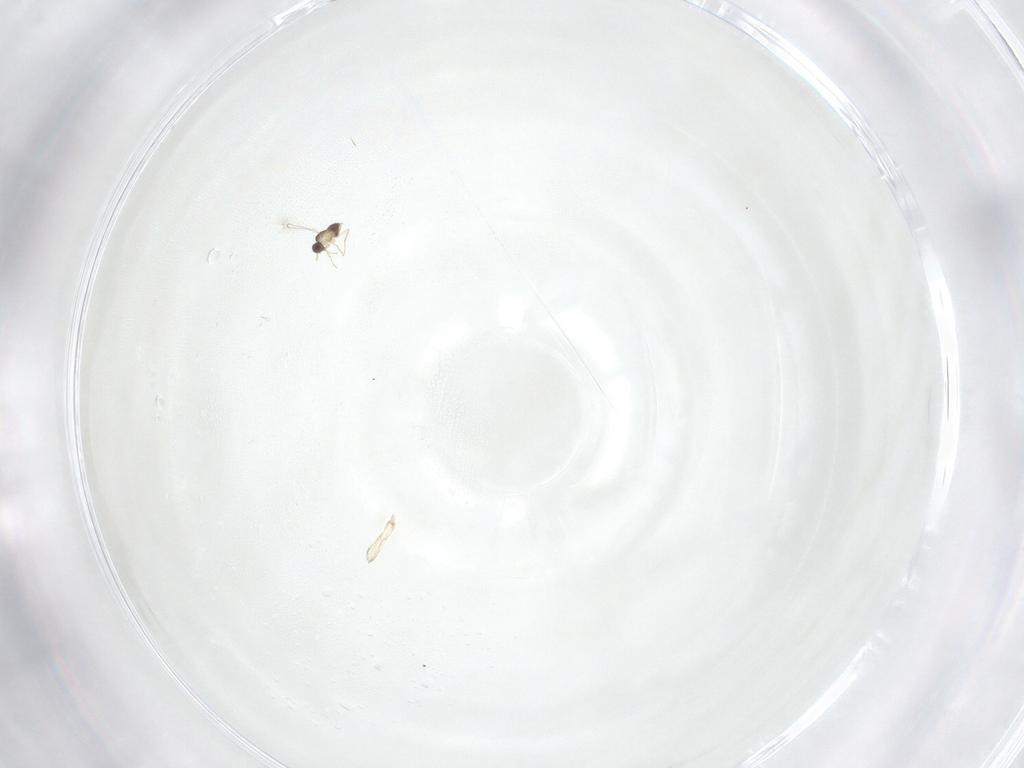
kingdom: Animalia
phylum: Arthropoda
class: Insecta
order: Hymenoptera
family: Mymaridae
